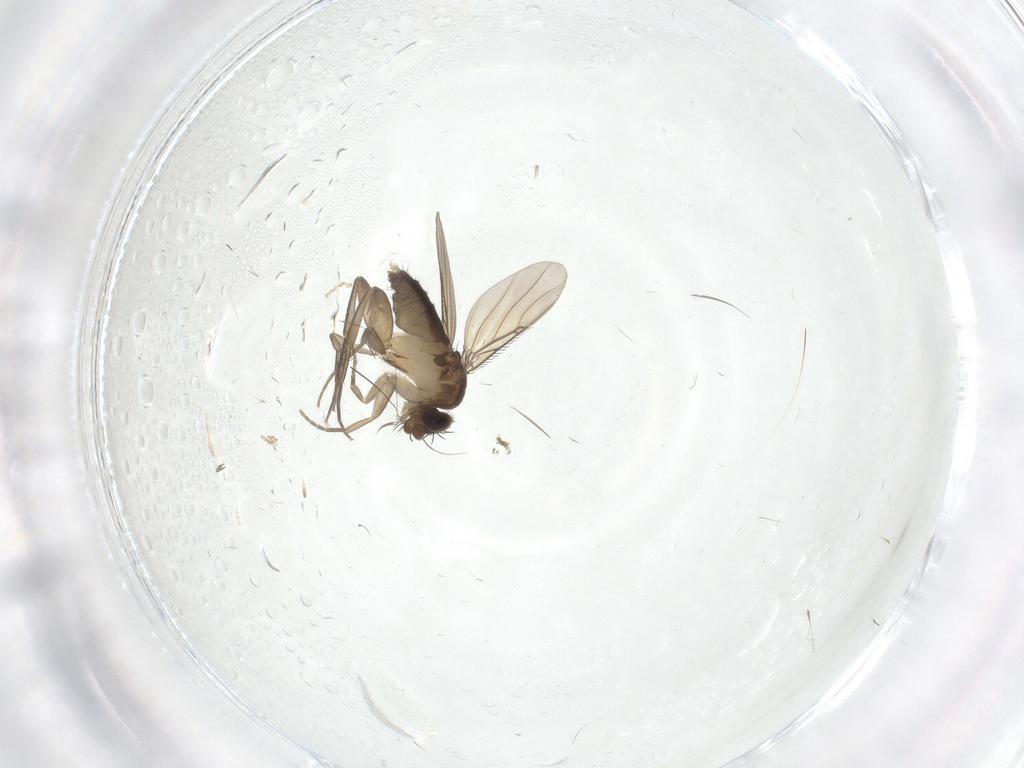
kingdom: Animalia
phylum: Arthropoda
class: Insecta
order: Diptera
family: Phoridae
